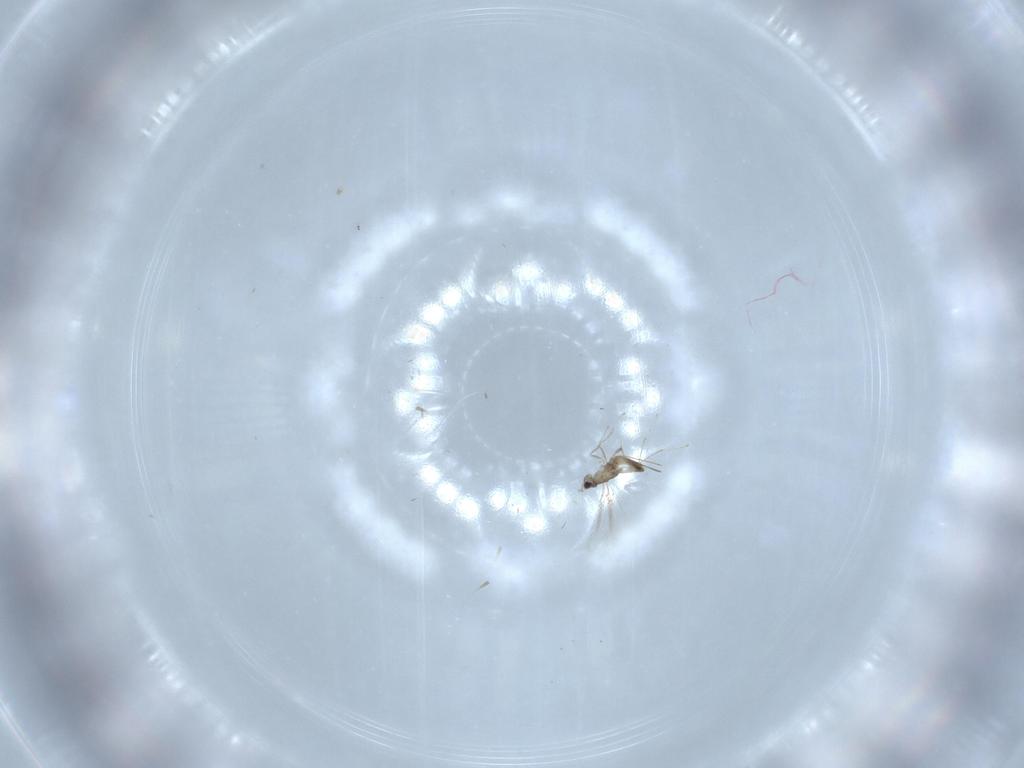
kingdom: Animalia
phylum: Arthropoda
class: Insecta
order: Hymenoptera
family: Mymaridae
